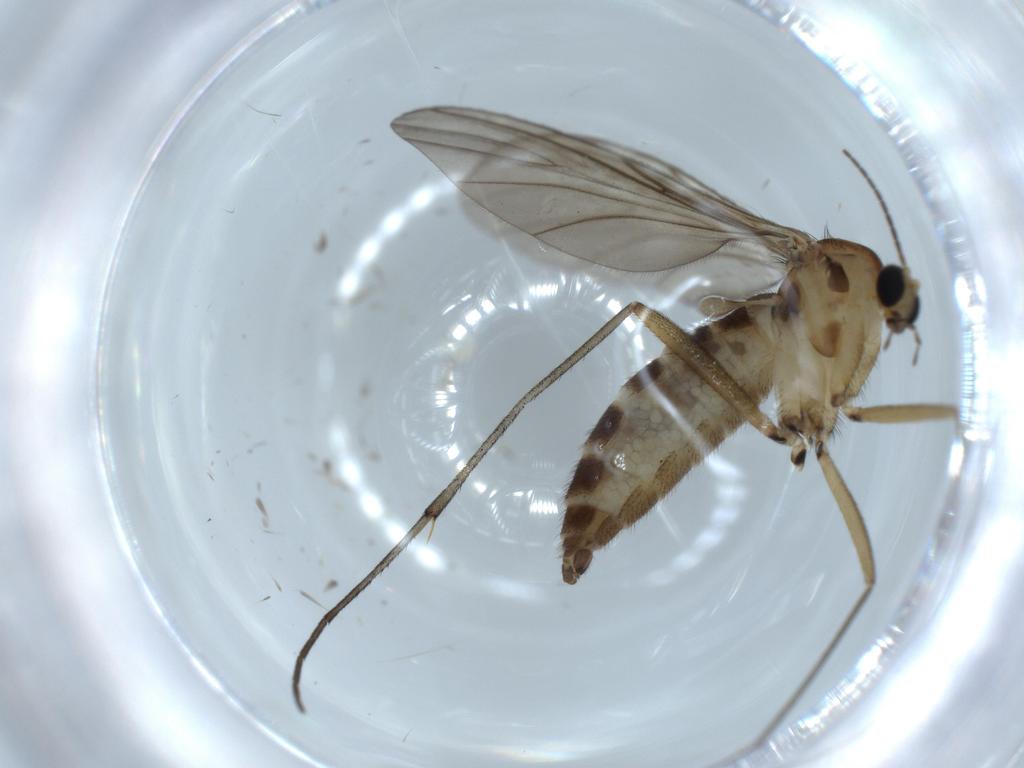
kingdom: Animalia
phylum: Arthropoda
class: Insecta
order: Diptera
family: Sciaridae
